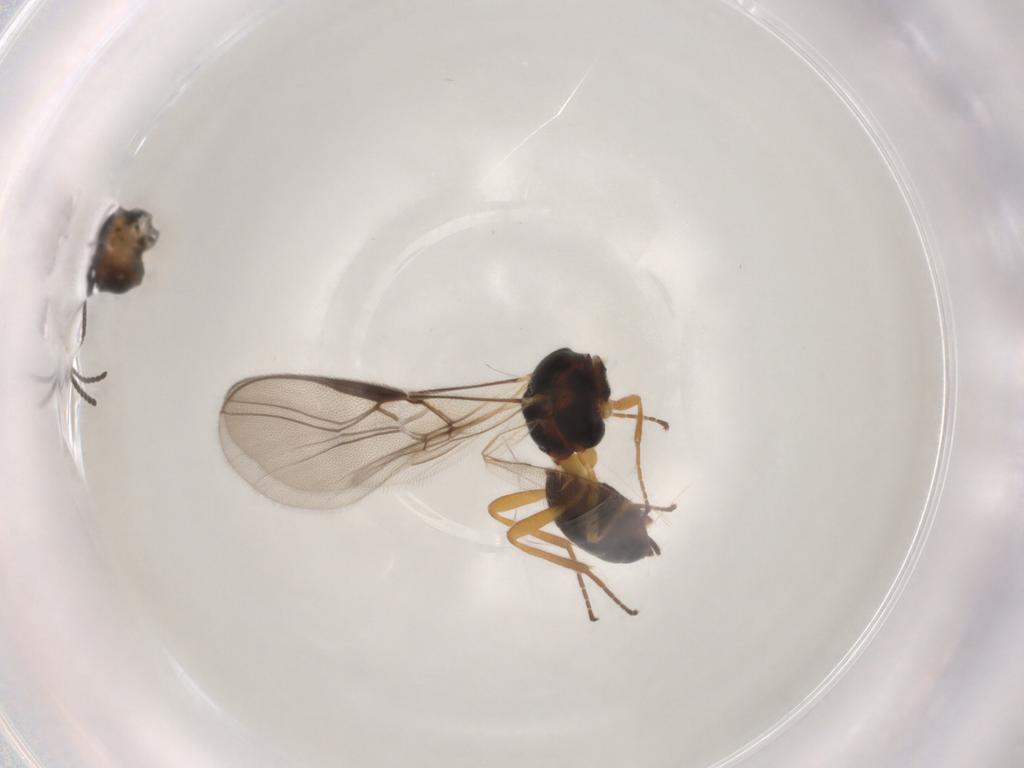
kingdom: Animalia
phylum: Arthropoda
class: Insecta
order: Hymenoptera
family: Braconidae
